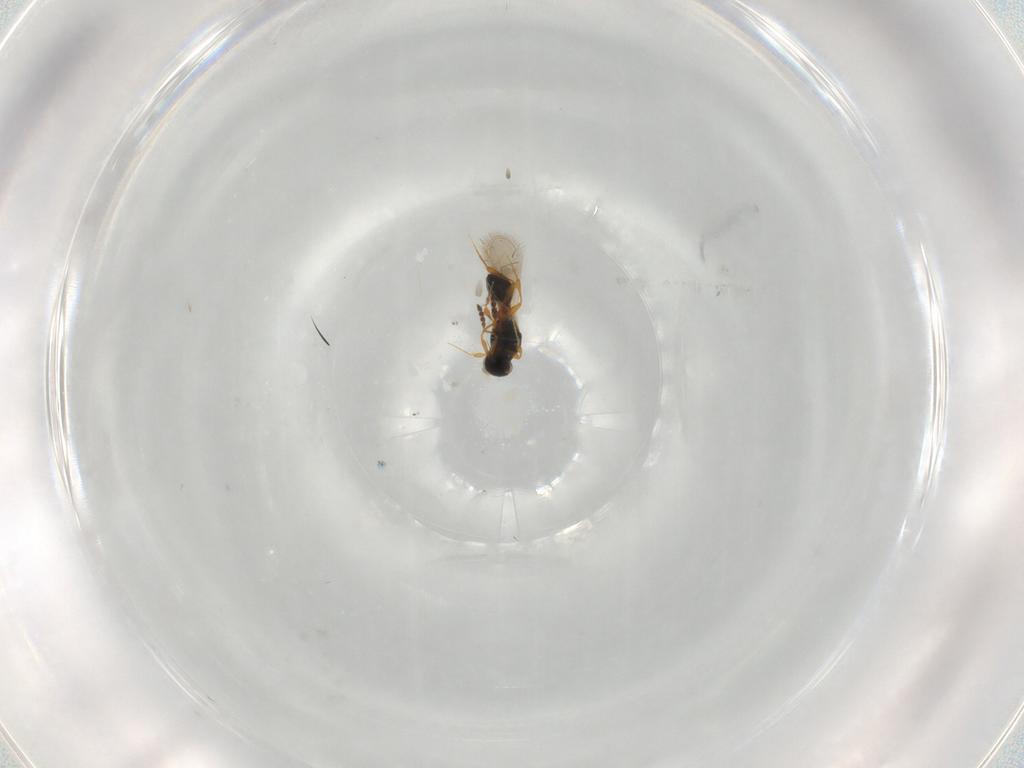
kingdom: Animalia
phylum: Arthropoda
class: Insecta
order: Hymenoptera
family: Platygastridae
